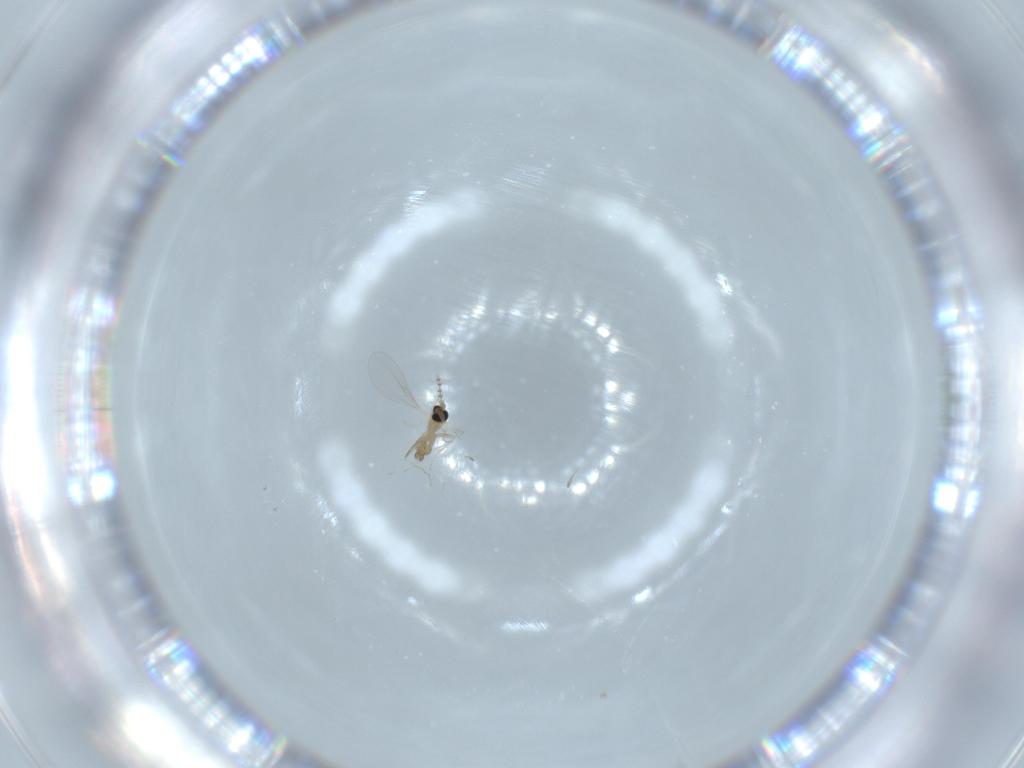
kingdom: Animalia
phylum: Arthropoda
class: Insecta
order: Diptera
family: Cecidomyiidae
